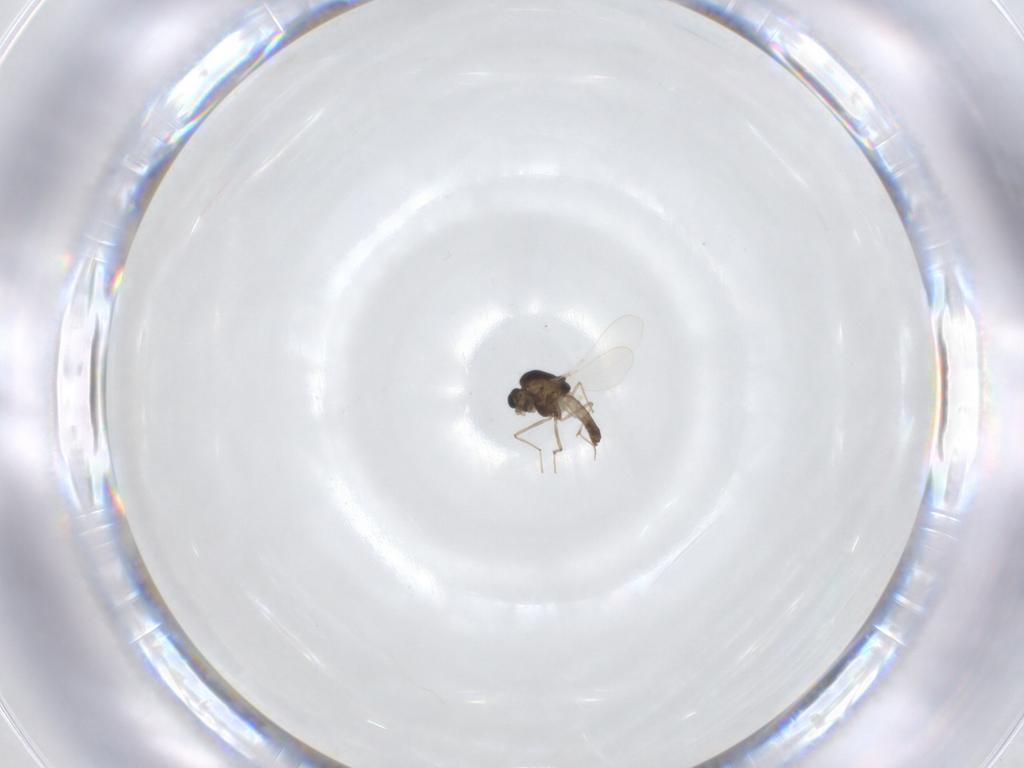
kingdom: Animalia
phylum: Arthropoda
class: Insecta
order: Diptera
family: Chironomidae
